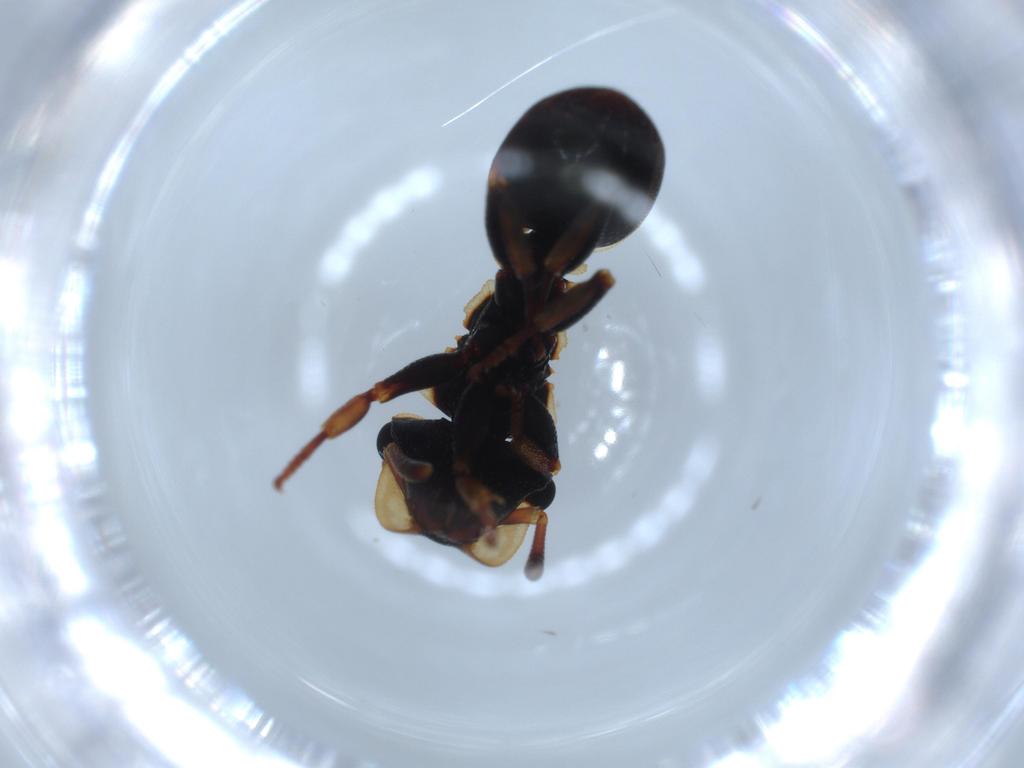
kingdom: Animalia
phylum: Arthropoda
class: Insecta
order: Hymenoptera
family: Formicidae
